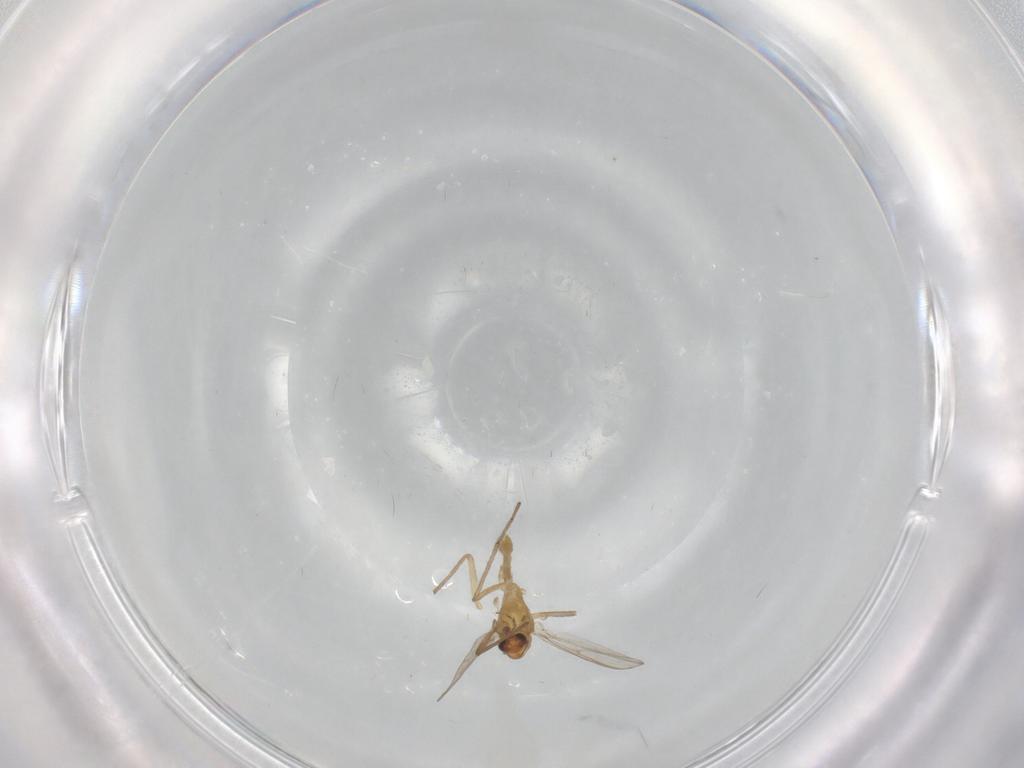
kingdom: Animalia
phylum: Arthropoda
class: Insecta
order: Diptera
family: Chironomidae
